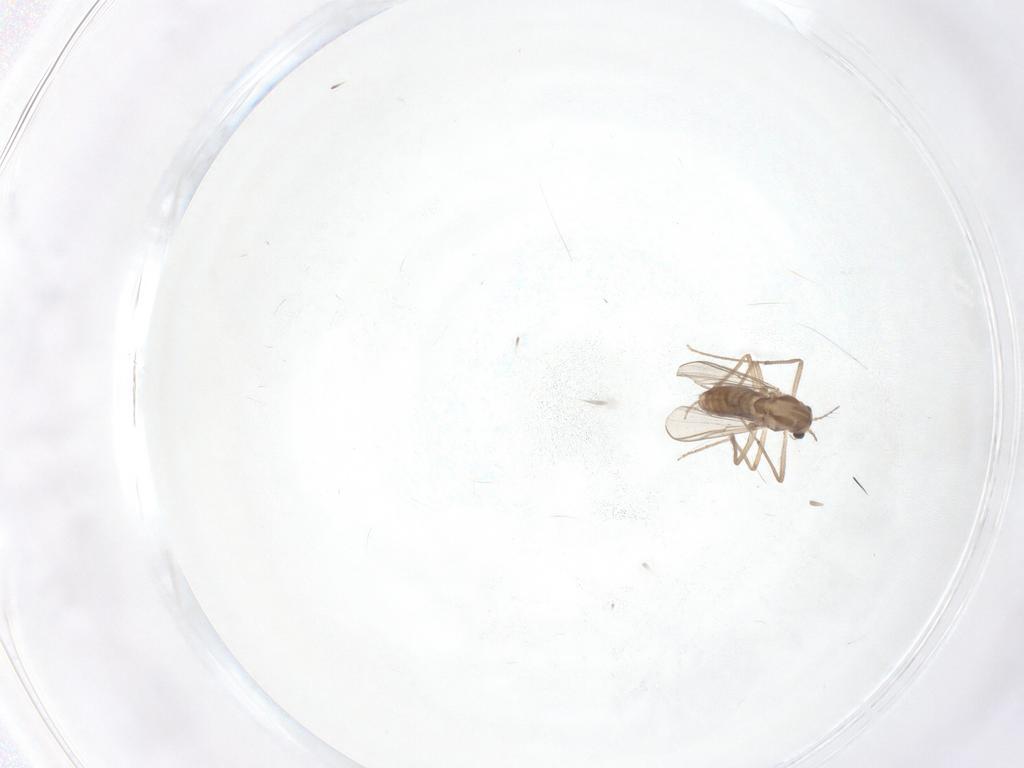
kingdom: Animalia
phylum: Arthropoda
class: Insecta
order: Diptera
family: Cecidomyiidae
